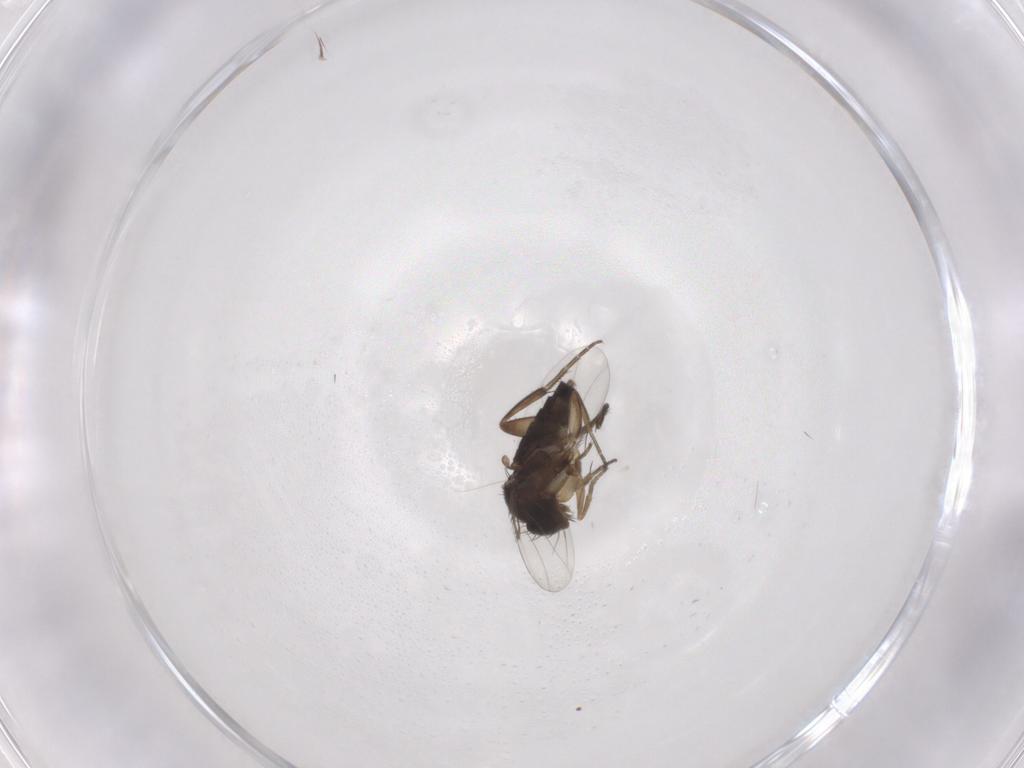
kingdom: Animalia
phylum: Arthropoda
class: Insecta
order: Diptera
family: Phoridae
